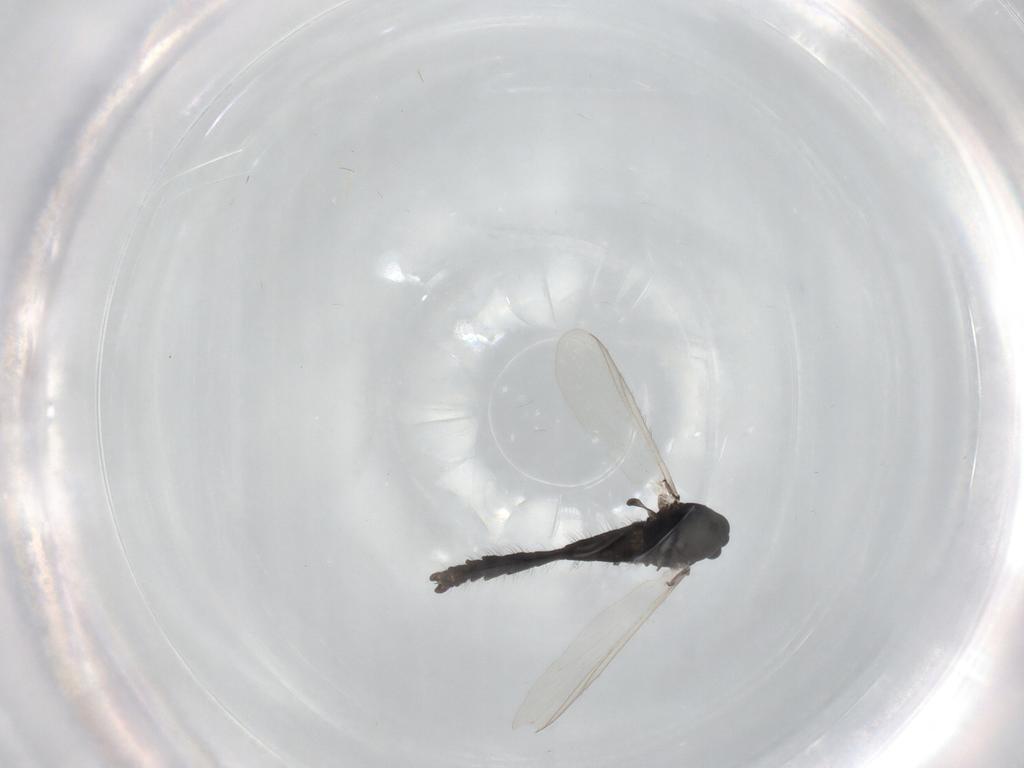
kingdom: Animalia
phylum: Arthropoda
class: Insecta
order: Diptera
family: Chironomidae
